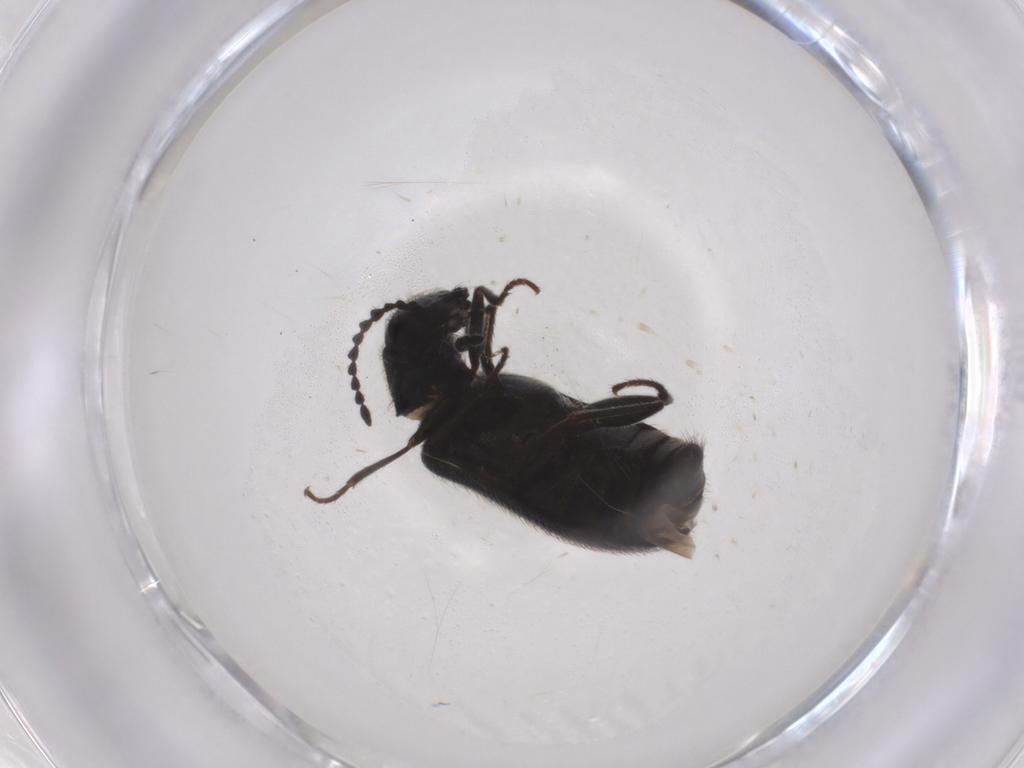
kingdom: Animalia
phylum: Arthropoda
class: Insecta
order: Coleoptera
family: Melyridae
